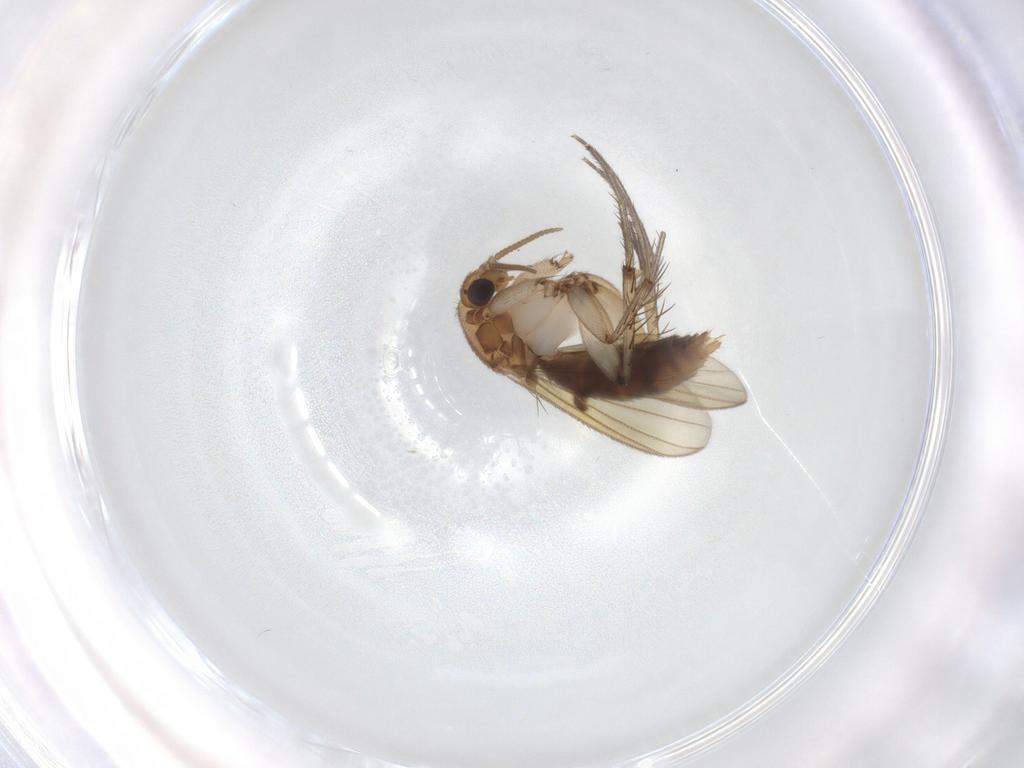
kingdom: Animalia
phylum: Arthropoda
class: Insecta
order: Diptera
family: Mycetophilidae
